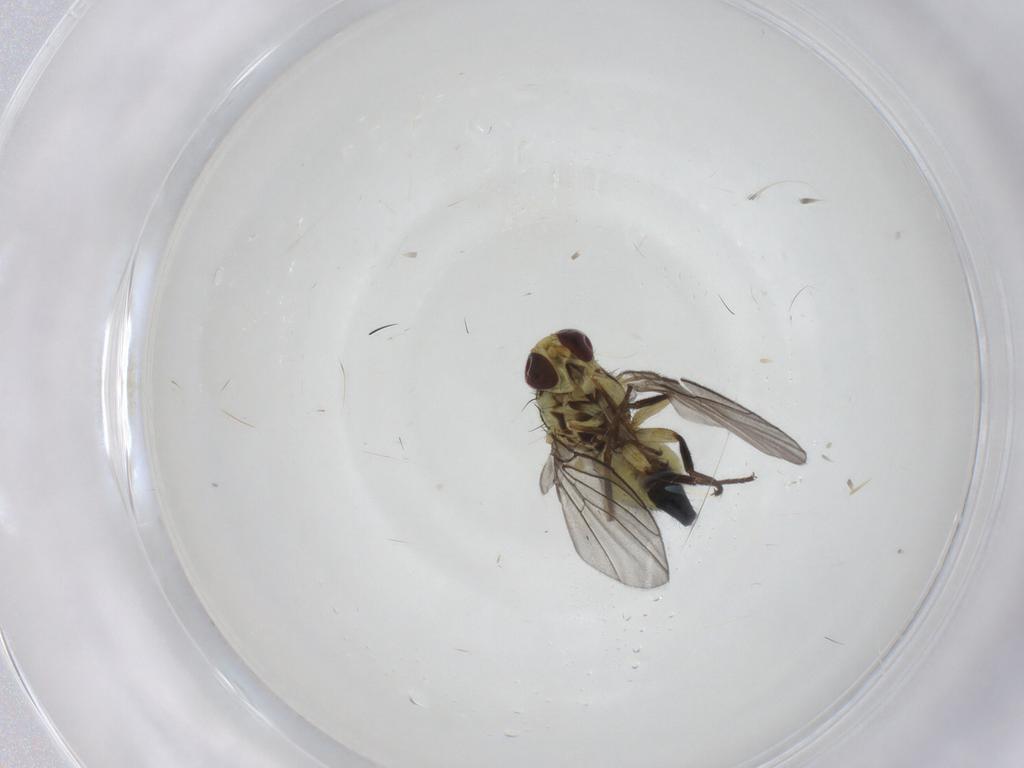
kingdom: Animalia
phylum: Arthropoda
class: Insecta
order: Diptera
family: Agromyzidae
